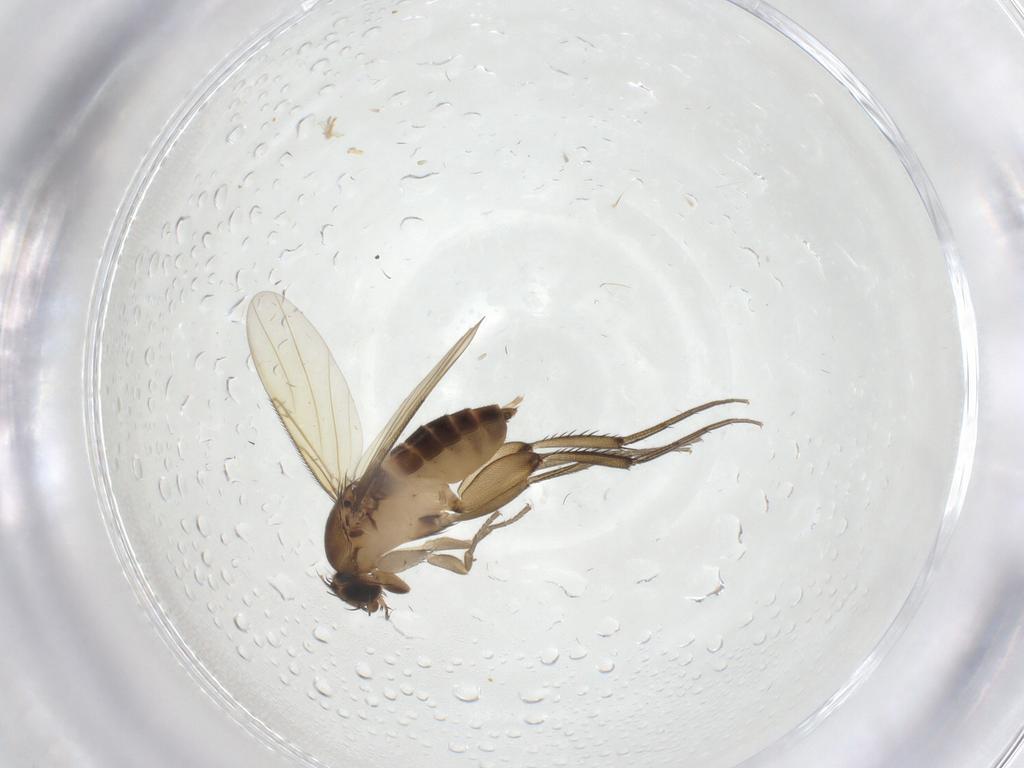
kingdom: Animalia
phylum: Arthropoda
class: Insecta
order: Diptera
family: Phoridae
